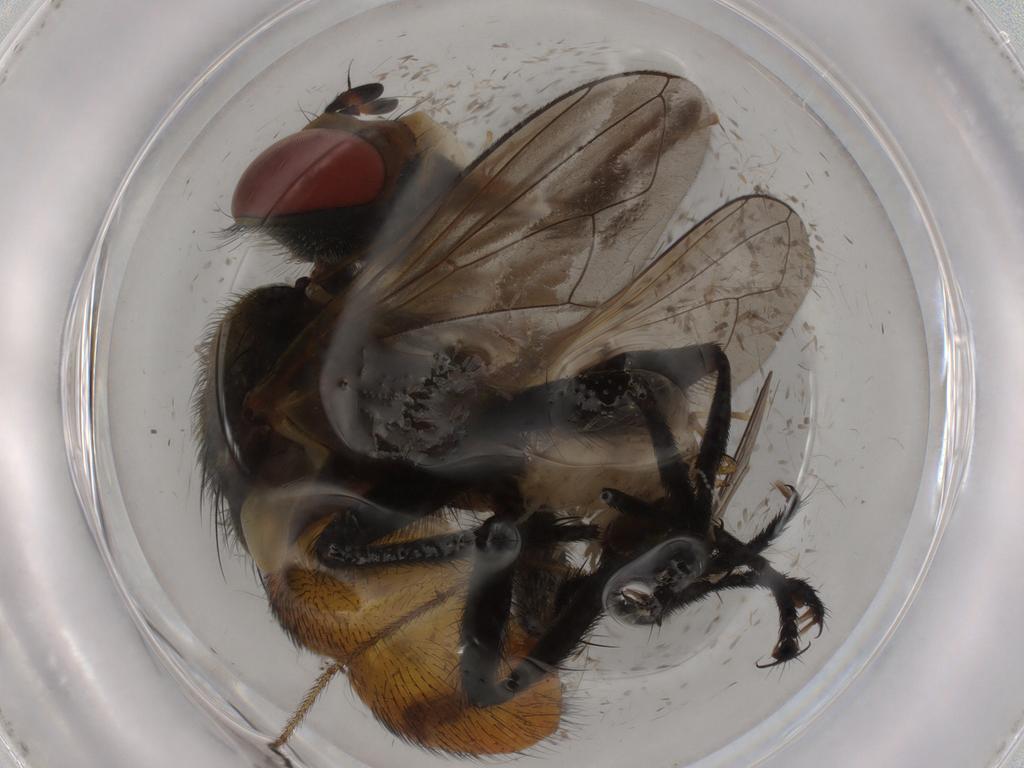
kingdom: Animalia
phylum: Arthropoda
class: Insecta
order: Diptera
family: Tachinidae
